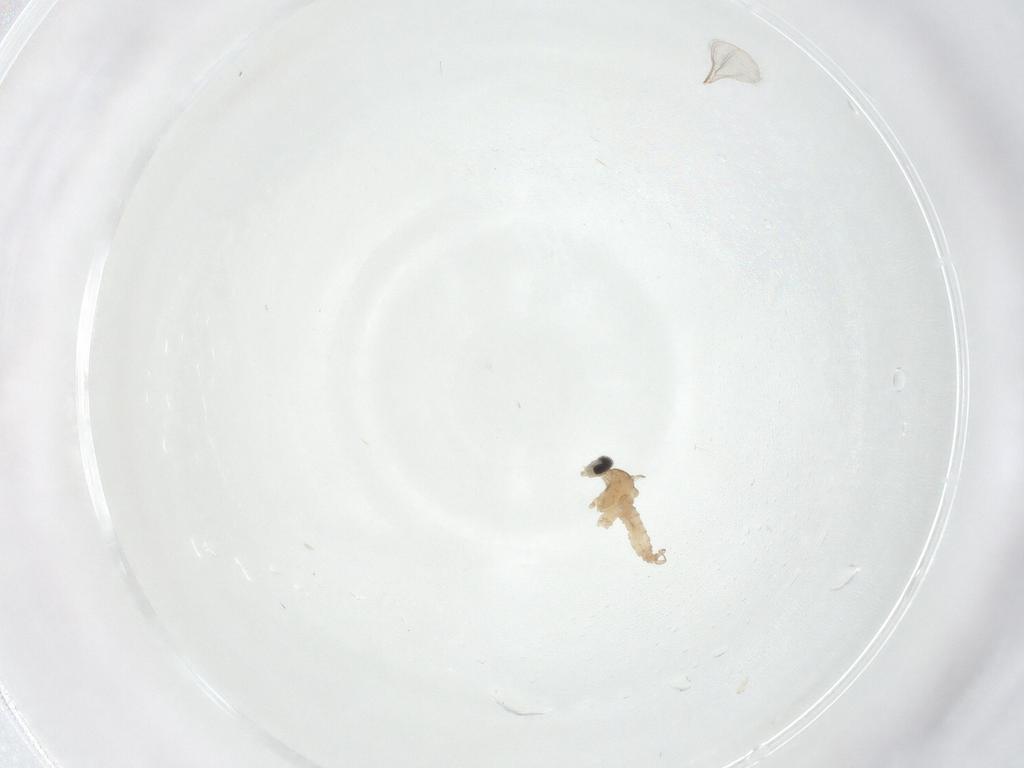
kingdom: Animalia
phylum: Arthropoda
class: Insecta
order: Diptera
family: Cecidomyiidae
